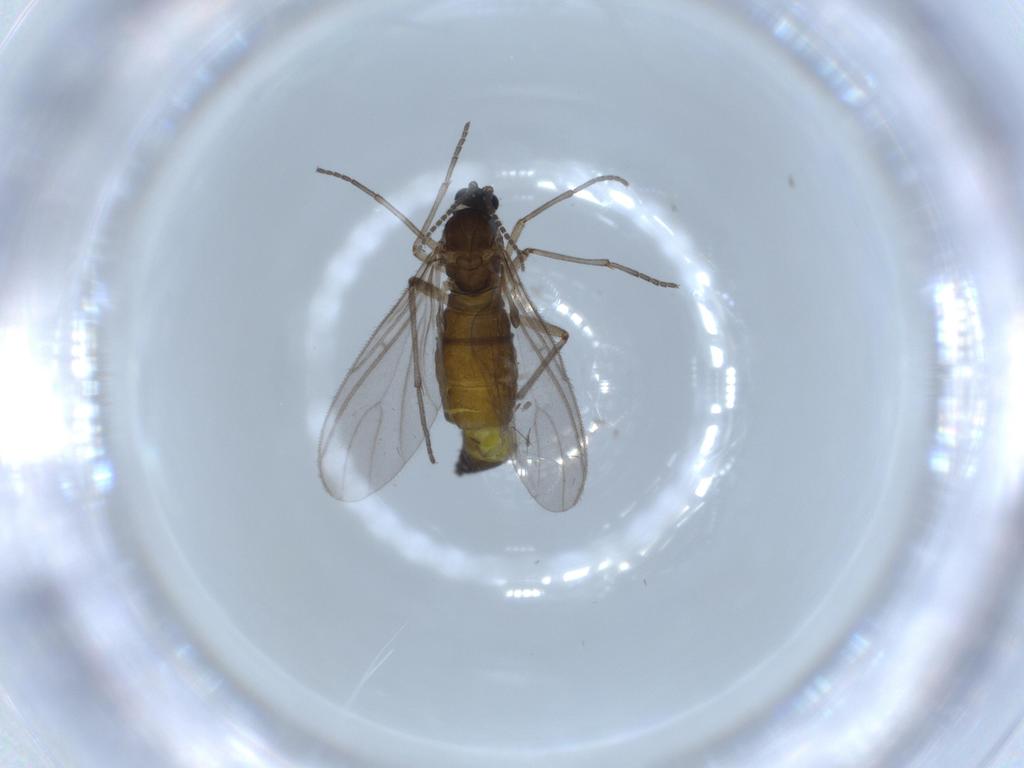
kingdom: Animalia
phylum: Arthropoda
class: Insecta
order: Diptera
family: Sciaridae
